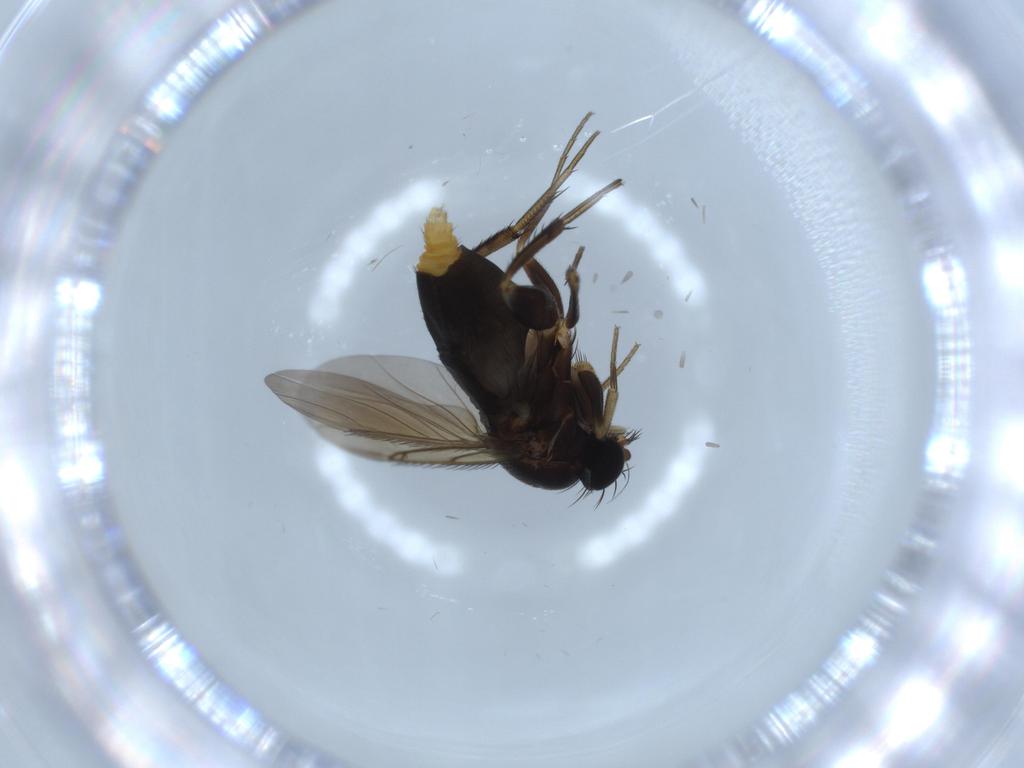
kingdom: Animalia
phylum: Arthropoda
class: Insecta
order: Diptera
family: Phoridae
